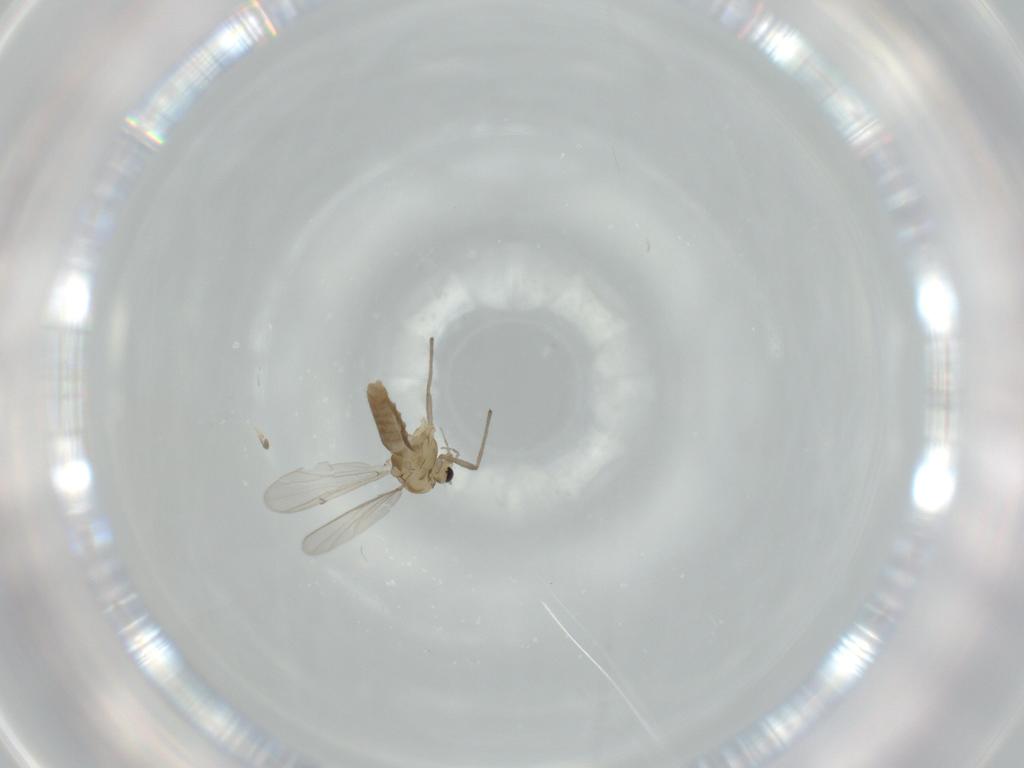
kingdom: Animalia
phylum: Arthropoda
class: Insecta
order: Diptera
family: Chironomidae
